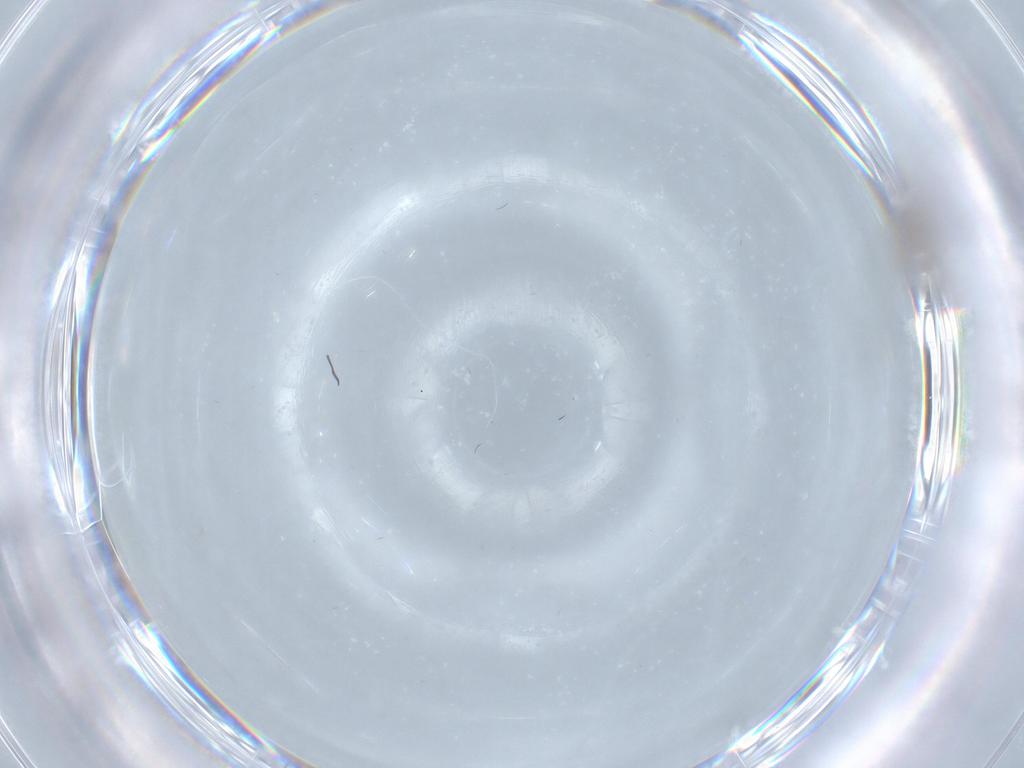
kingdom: Animalia
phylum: Arthropoda
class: Insecta
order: Diptera
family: Cecidomyiidae
